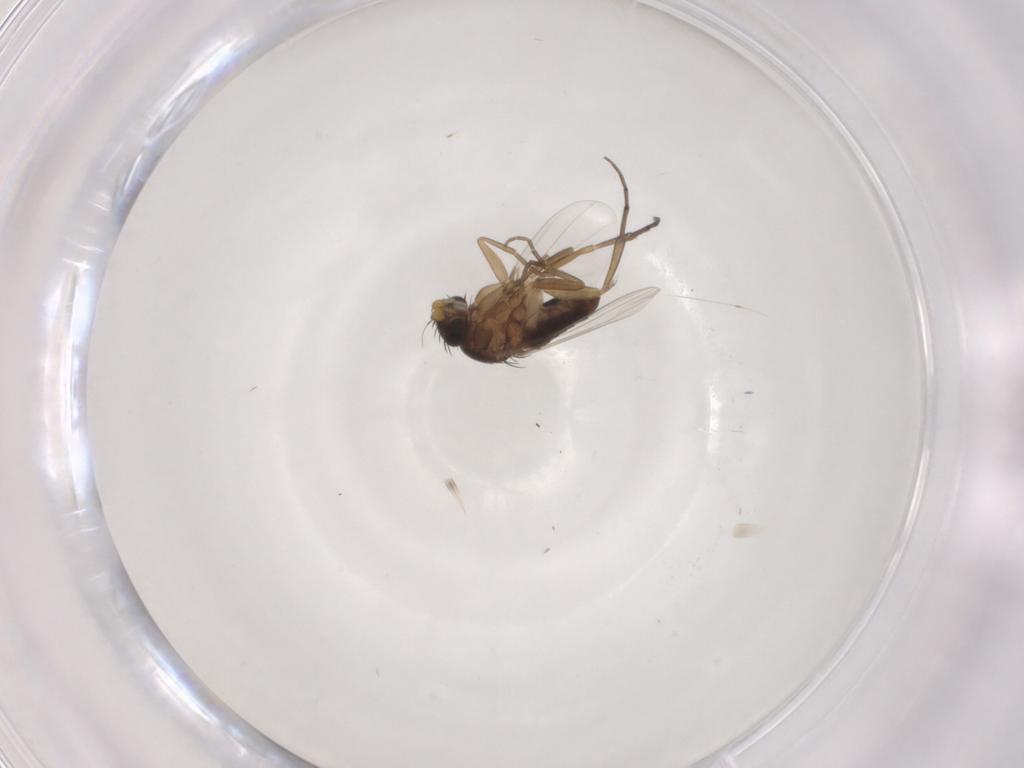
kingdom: Animalia
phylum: Arthropoda
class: Insecta
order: Diptera
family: Phoridae
